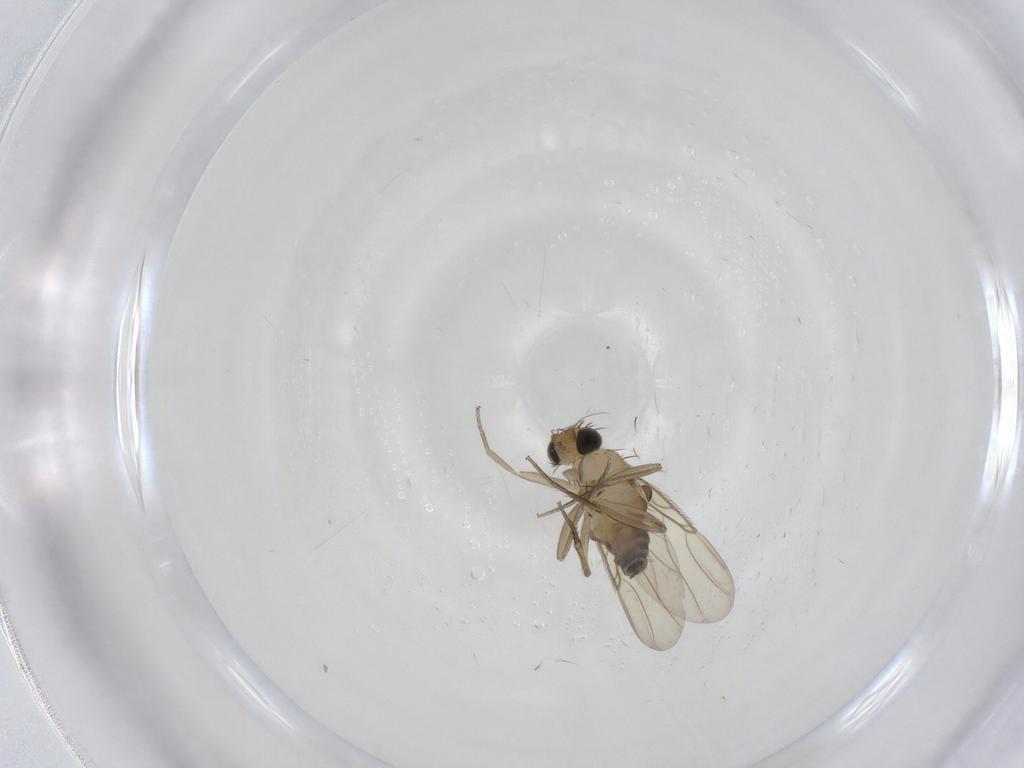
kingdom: Animalia
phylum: Arthropoda
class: Insecta
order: Diptera
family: Phoridae
